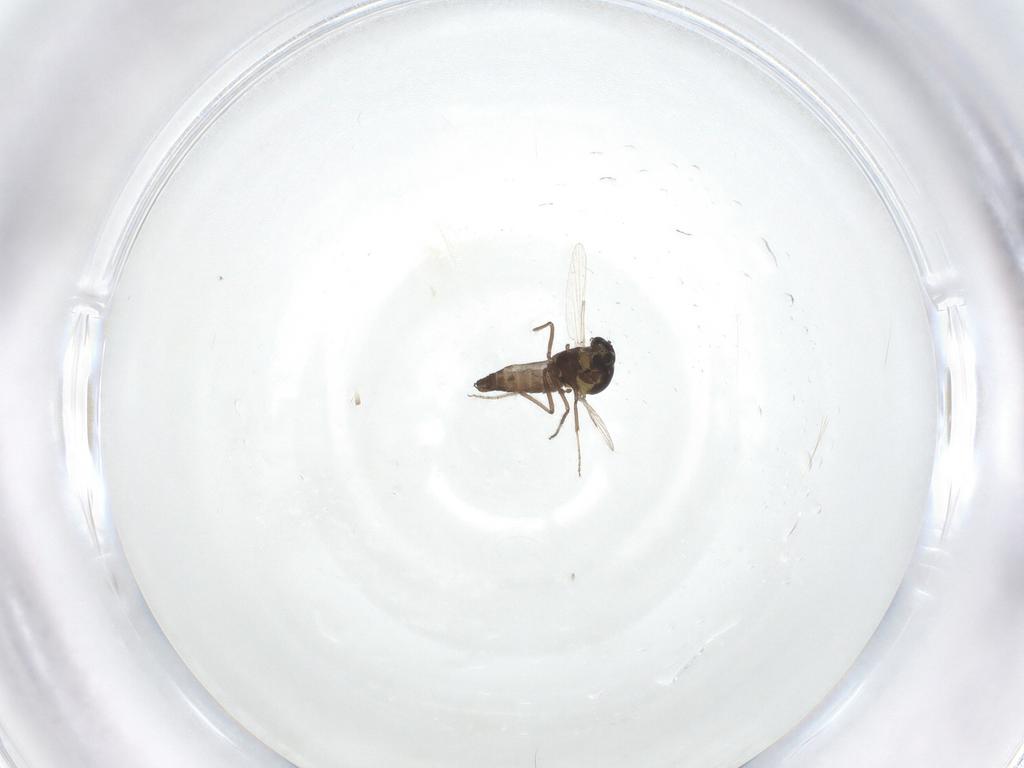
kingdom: Animalia
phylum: Arthropoda
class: Insecta
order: Diptera
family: Ceratopogonidae
